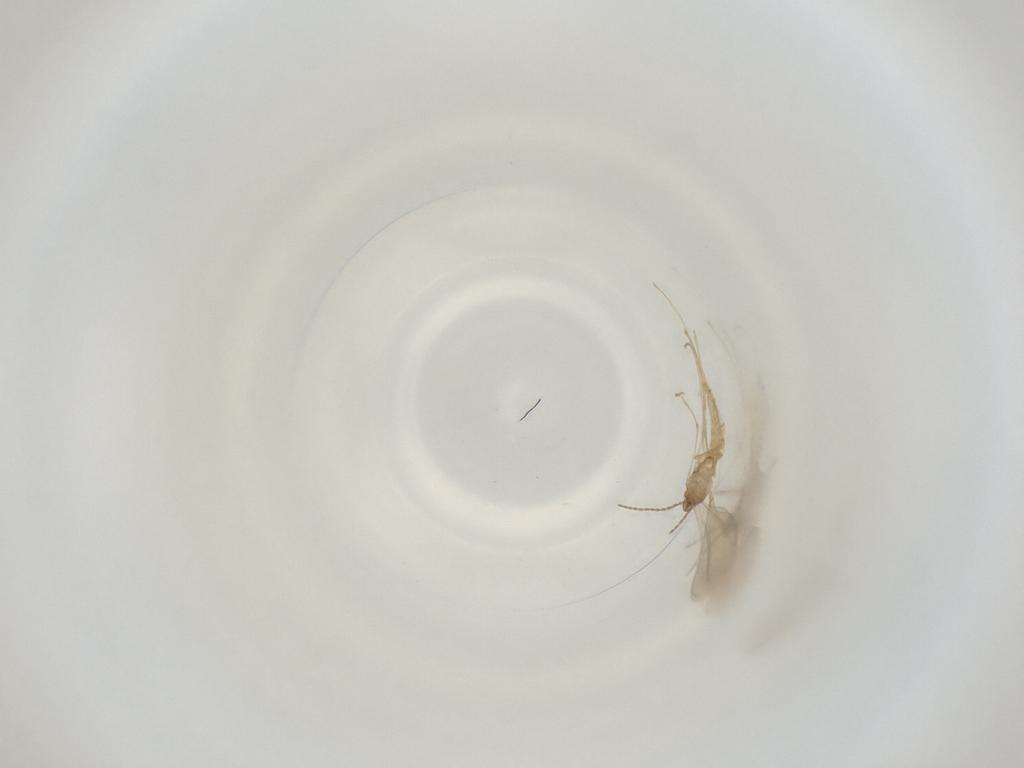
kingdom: Animalia
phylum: Arthropoda
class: Insecta
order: Diptera
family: Cecidomyiidae
